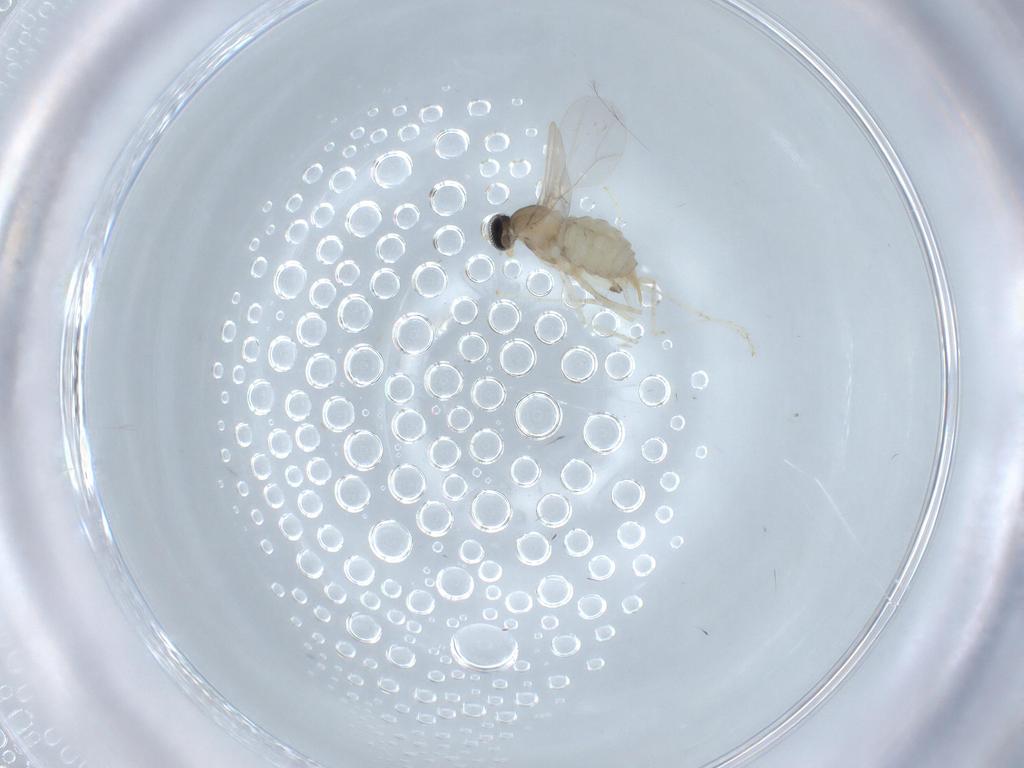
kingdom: Animalia
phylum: Arthropoda
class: Insecta
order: Diptera
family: Cecidomyiidae
